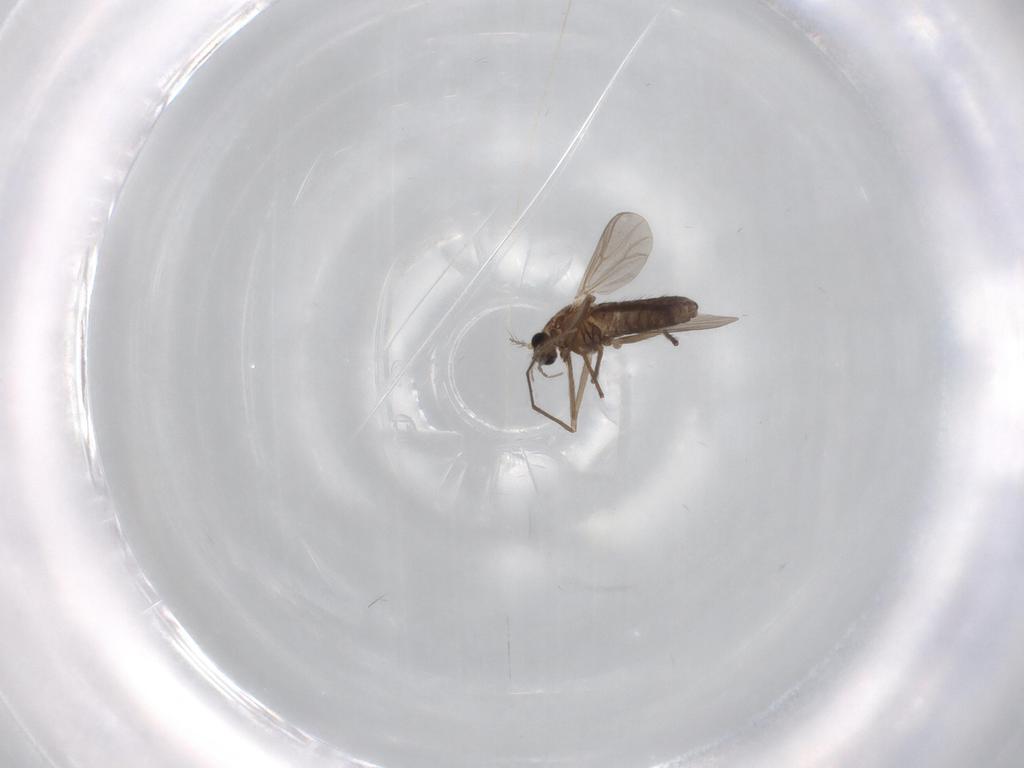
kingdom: Animalia
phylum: Arthropoda
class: Insecta
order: Diptera
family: Chironomidae
